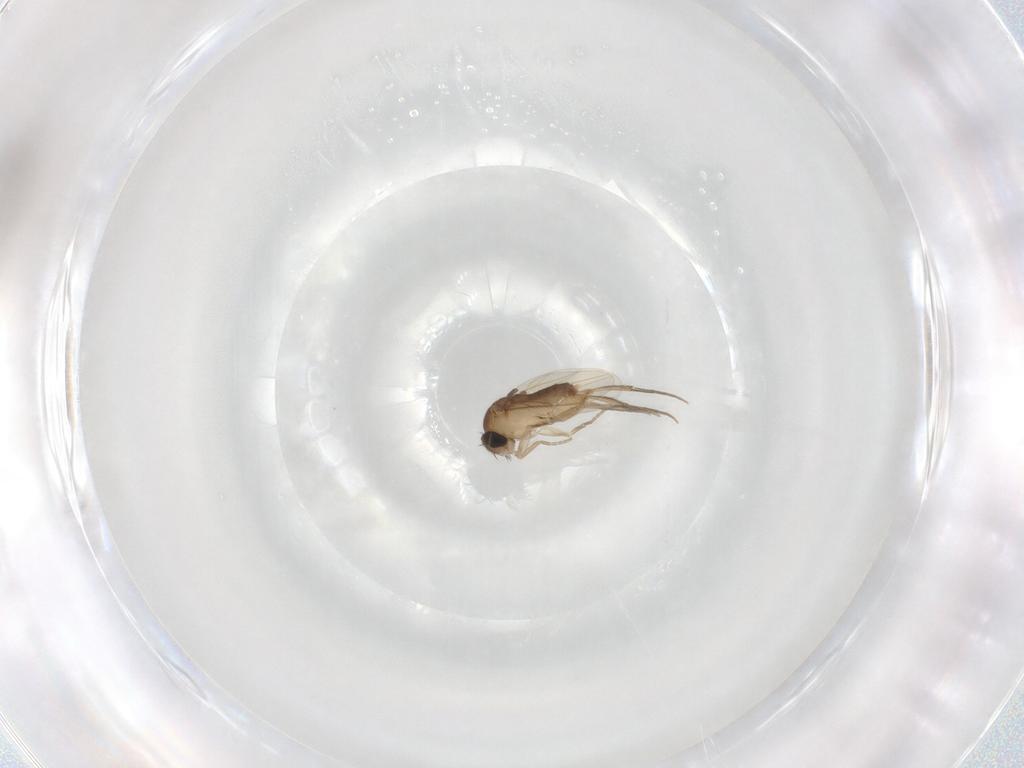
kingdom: Animalia
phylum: Arthropoda
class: Insecta
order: Diptera
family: Phoridae
